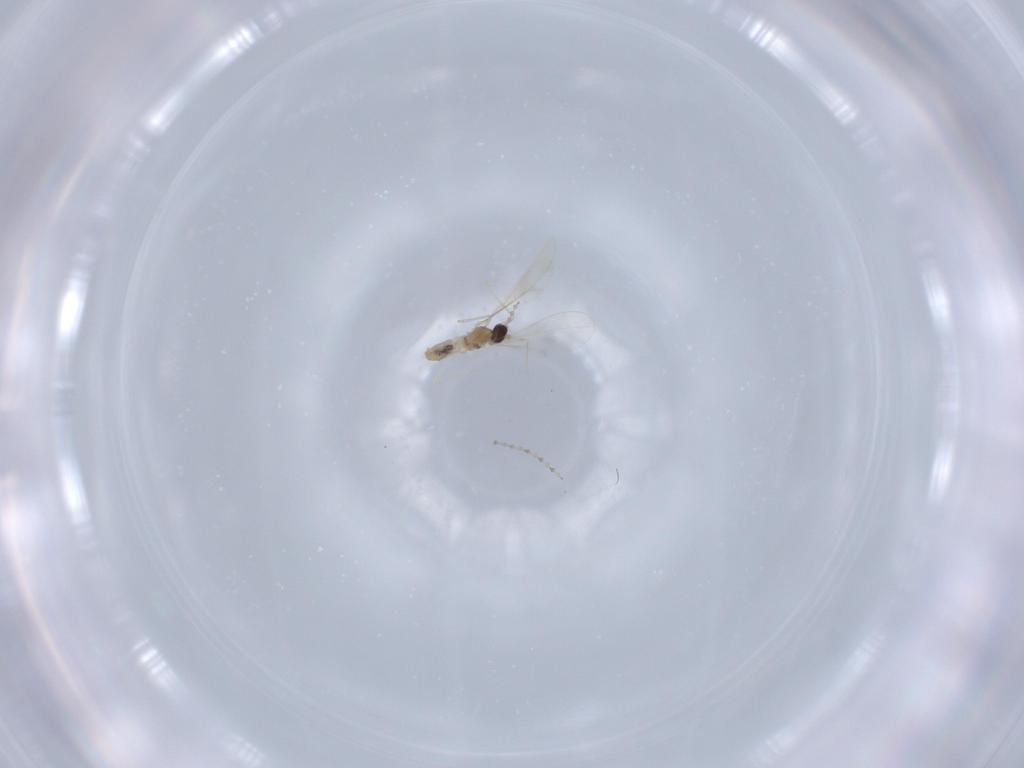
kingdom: Animalia
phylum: Arthropoda
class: Insecta
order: Diptera
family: Cecidomyiidae
